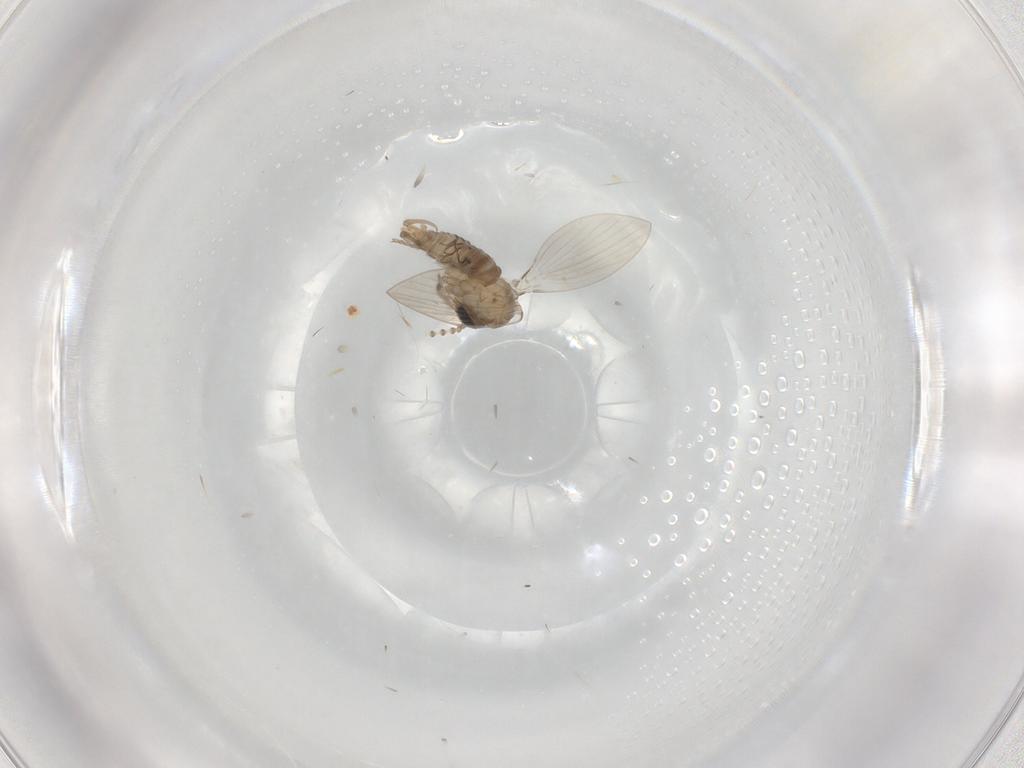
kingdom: Animalia
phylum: Arthropoda
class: Insecta
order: Diptera
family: Drosophilidae
